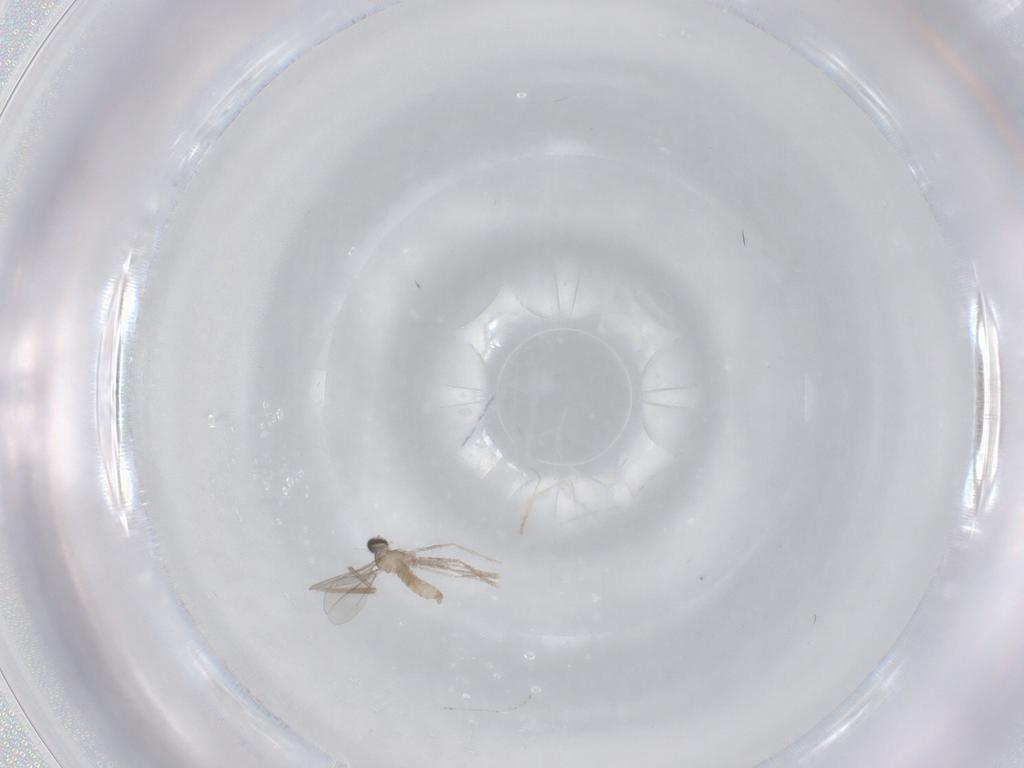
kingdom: Animalia
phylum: Arthropoda
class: Insecta
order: Diptera
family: Chironomidae
